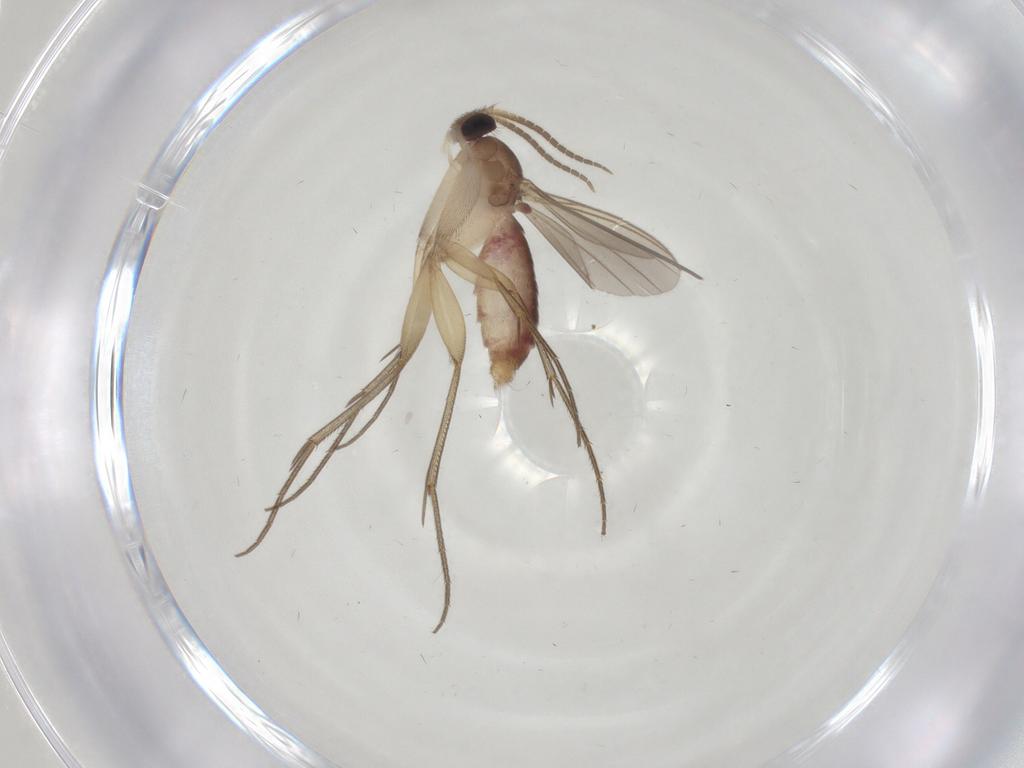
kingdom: Animalia
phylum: Arthropoda
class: Insecta
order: Diptera
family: Mycetophilidae
